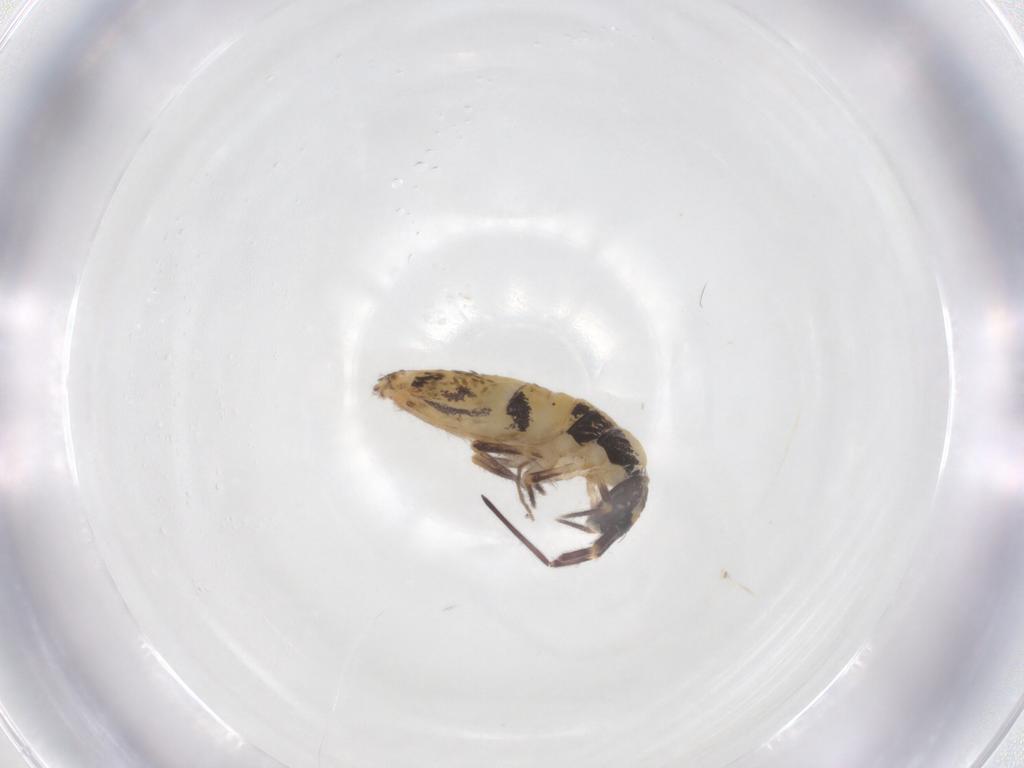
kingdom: Animalia
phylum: Arthropoda
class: Collembola
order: Entomobryomorpha
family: Entomobryidae
